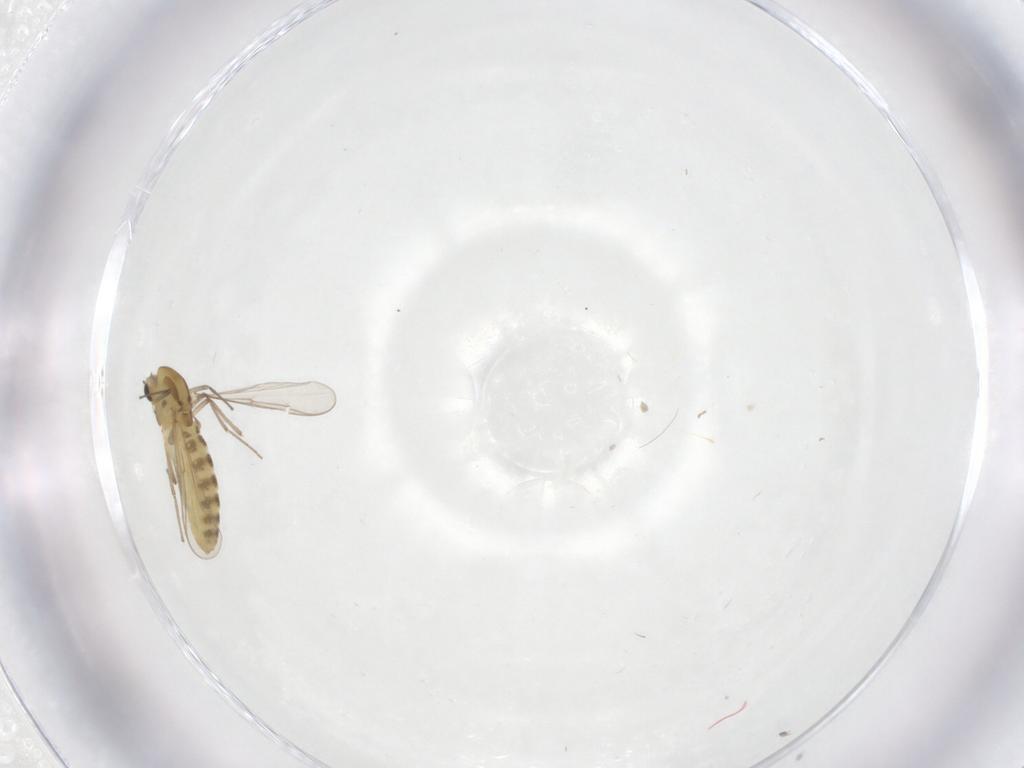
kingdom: Animalia
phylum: Arthropoda
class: Insecta
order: Diptera
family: Chironomidae
